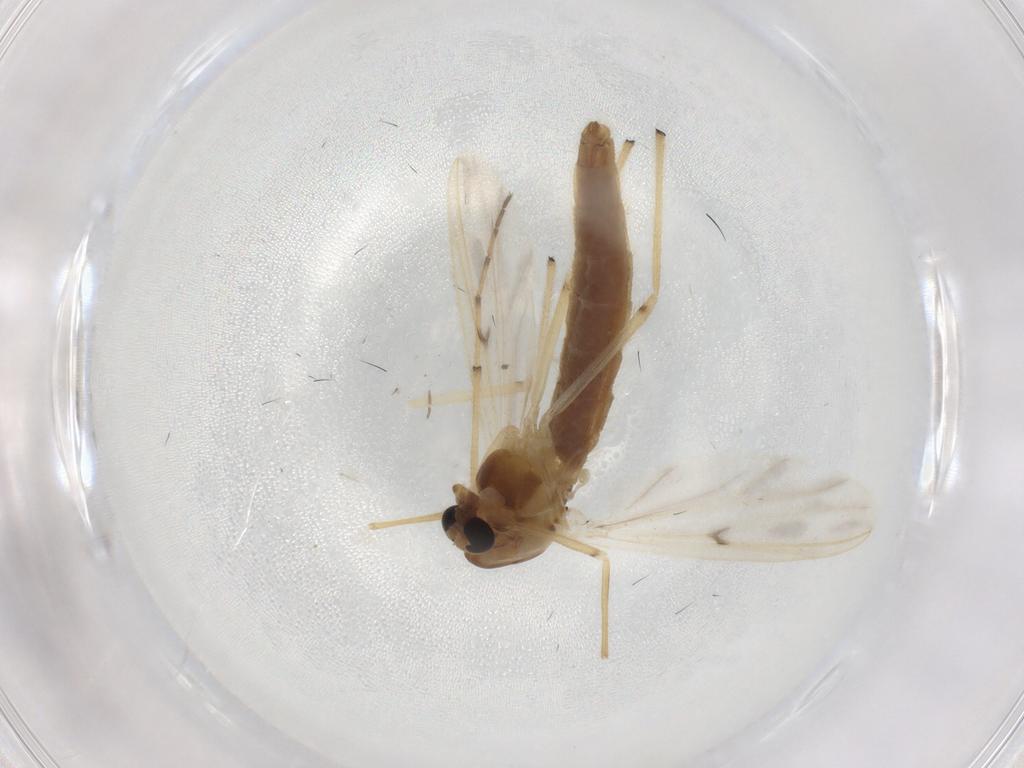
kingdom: Animalia
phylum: Arthropoda
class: Insecta
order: Diptera
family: Chironomidae
